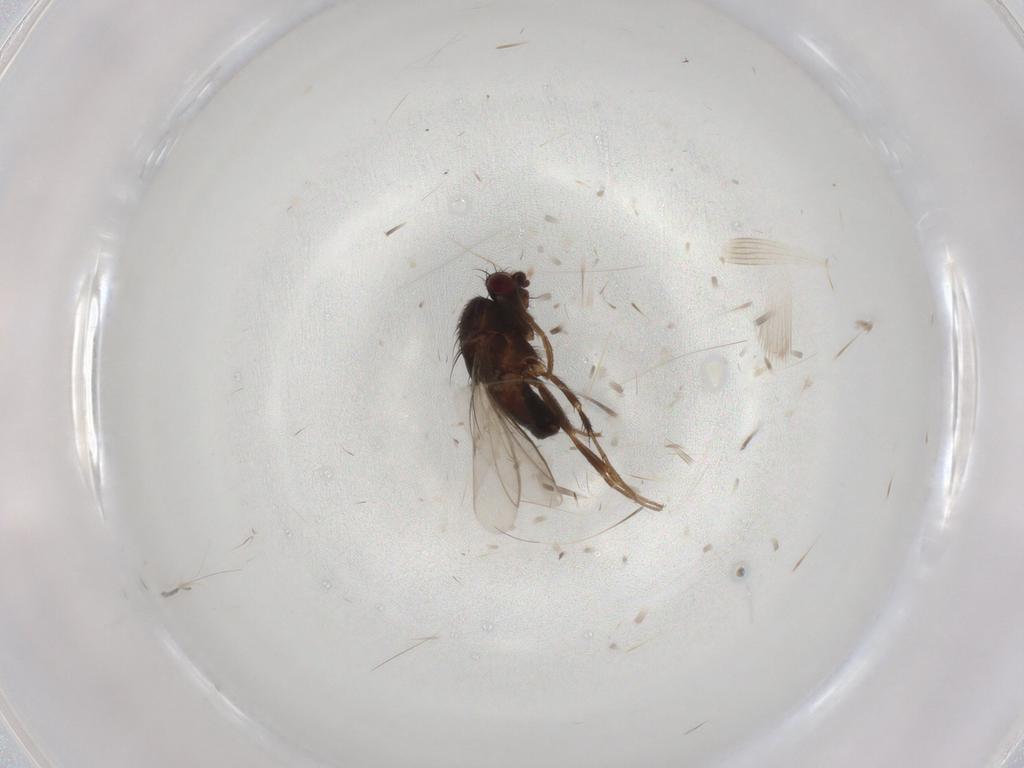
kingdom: Animalia
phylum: Arthropoda
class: Insecta
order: Diptera
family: Sphaeroceridae
